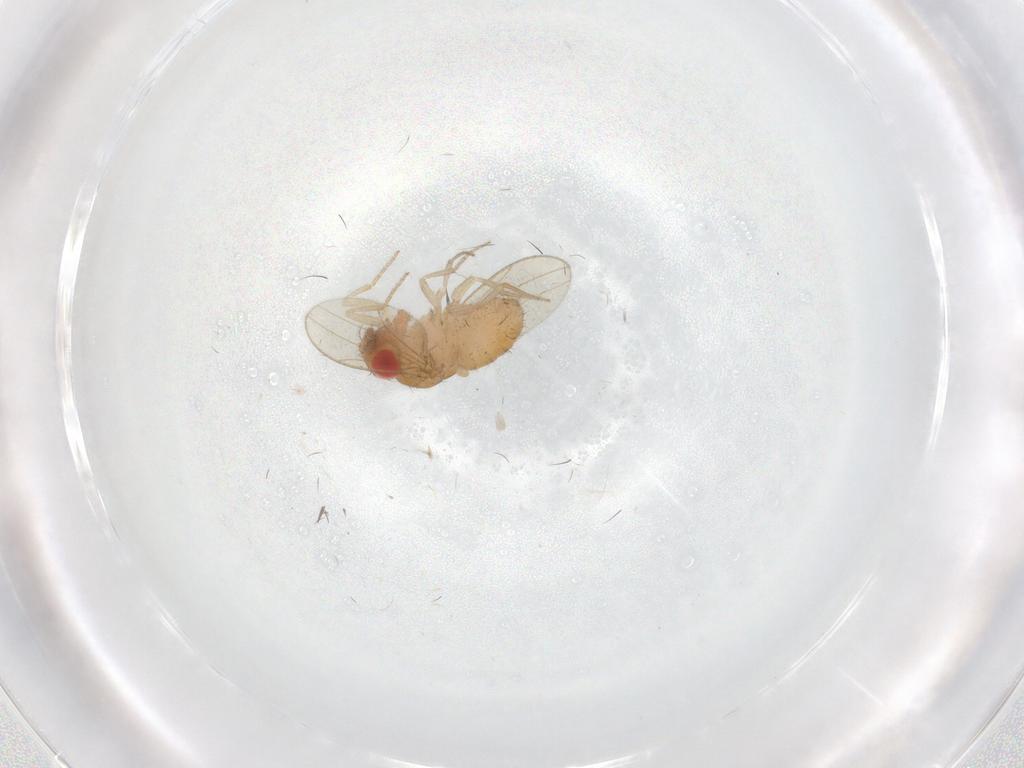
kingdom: Animalia
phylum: Arthropoda
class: Insecta
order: Diptera
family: Drosophilidae
